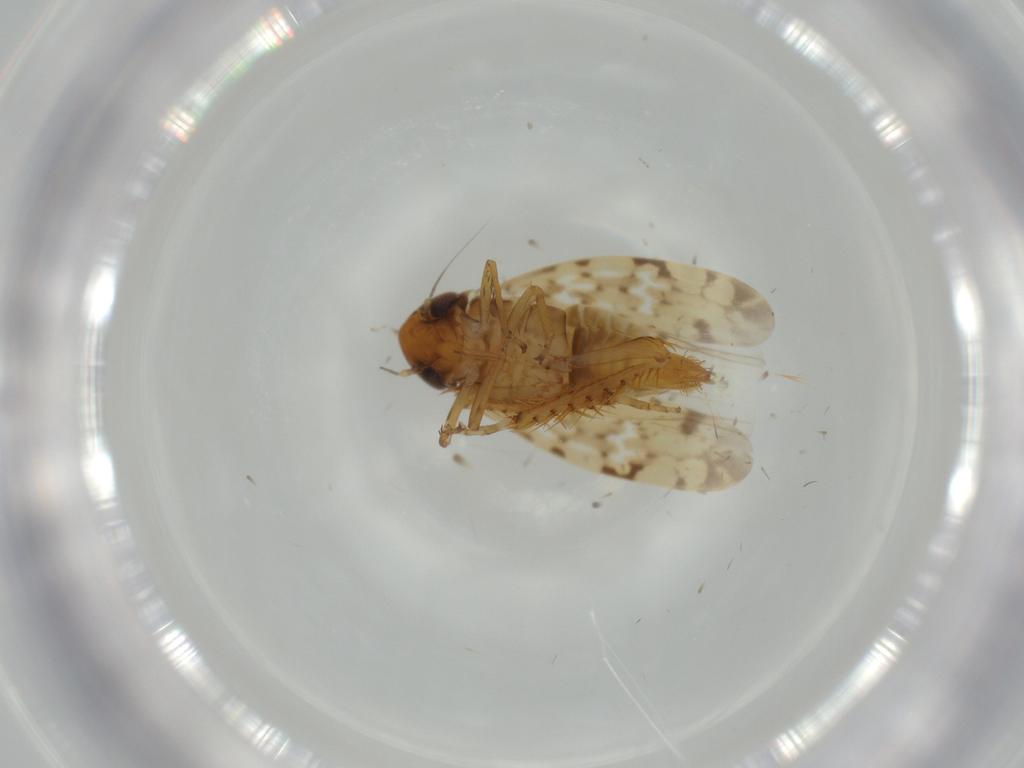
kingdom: Animalia
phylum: Arthropoda
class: Insecta
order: Hemiptera
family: Cicadellidae
